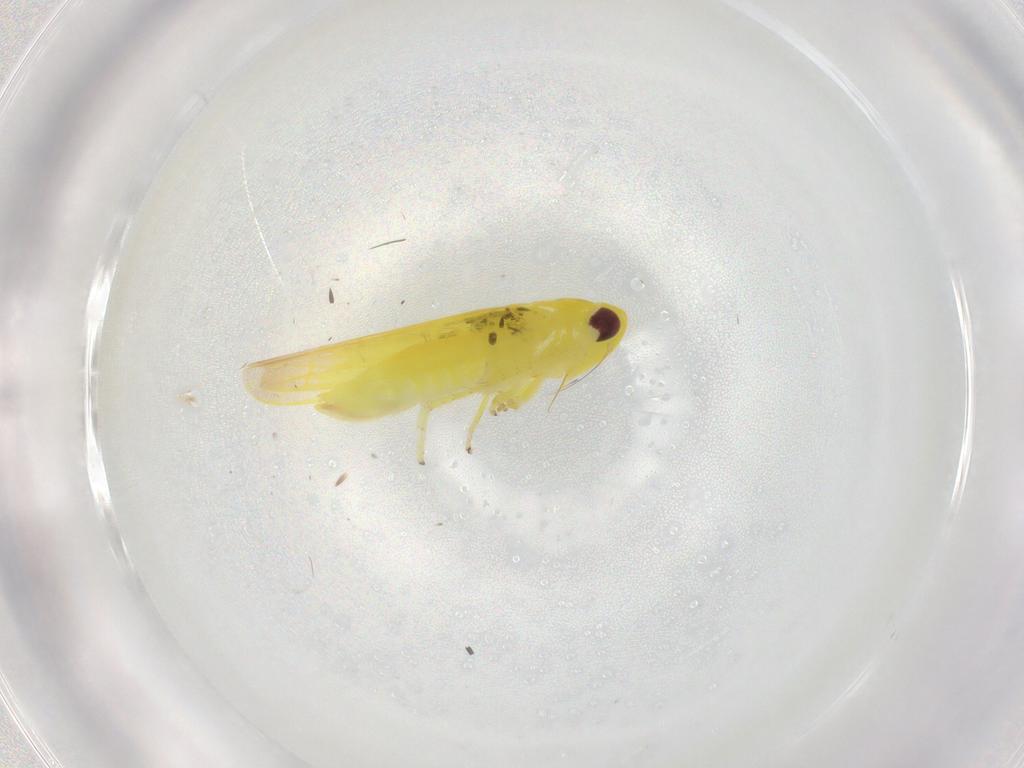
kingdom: Animalia
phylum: Arthropoda
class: Insecta
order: Hemiptera
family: Cicadellidae
